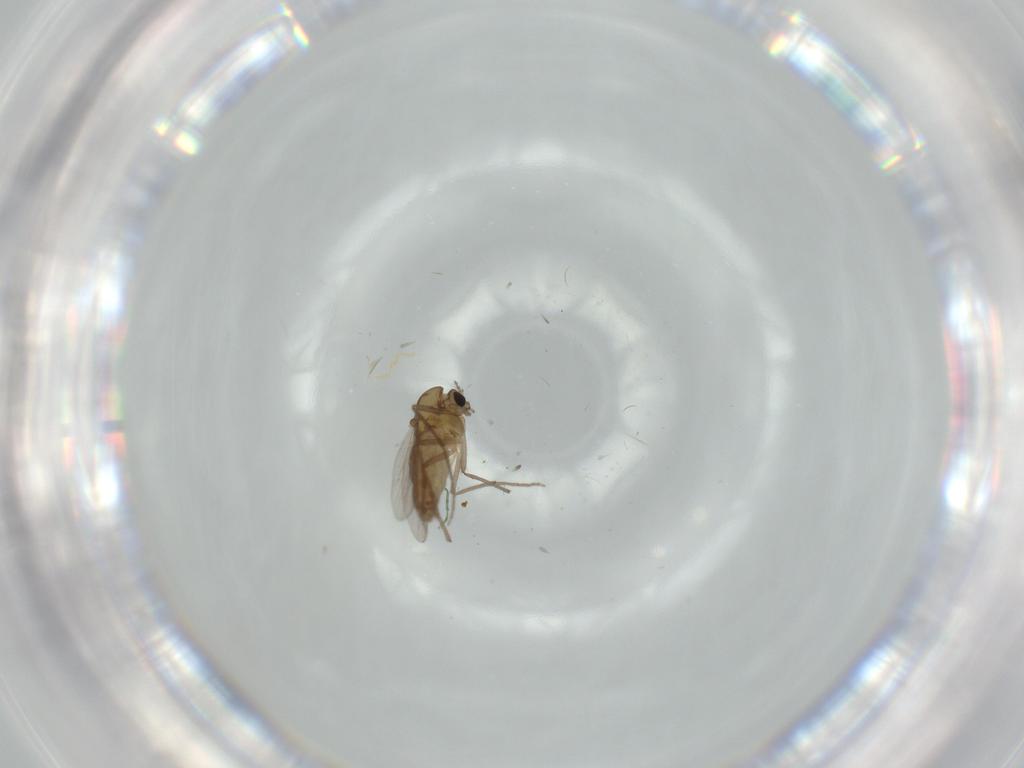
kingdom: Animalia
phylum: Arthropoda
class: Insecta
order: Diptera
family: Chironomidae
